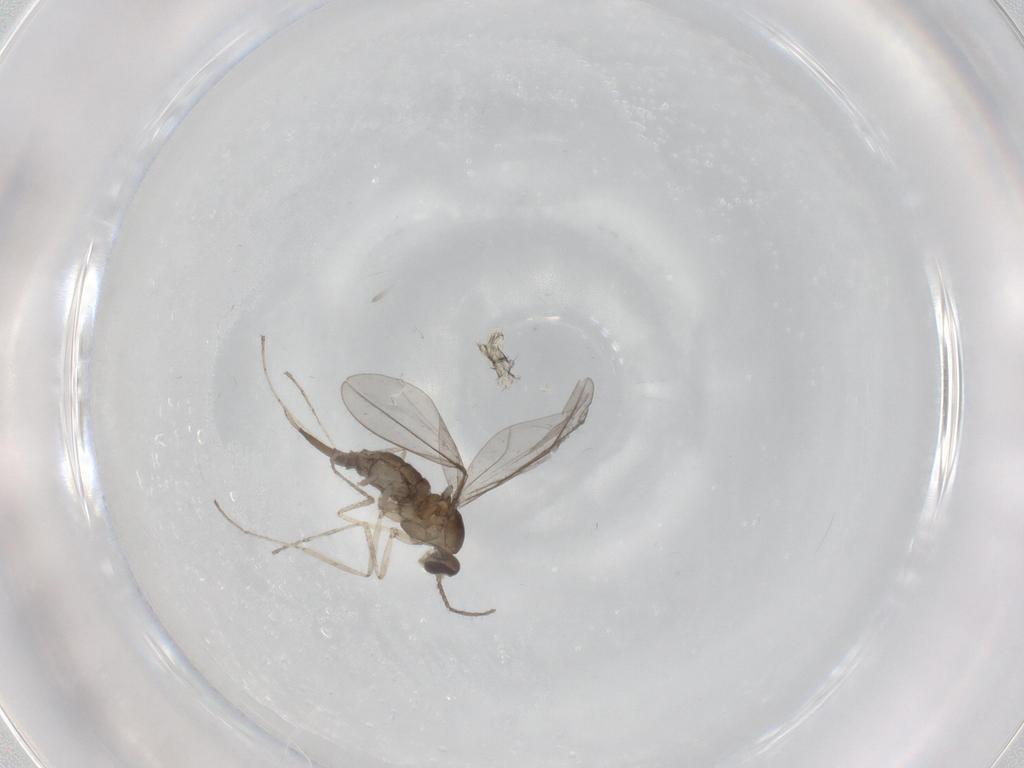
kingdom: Animalia
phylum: Arthropoda
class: Insecta
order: Diptera
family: Chironomidae
